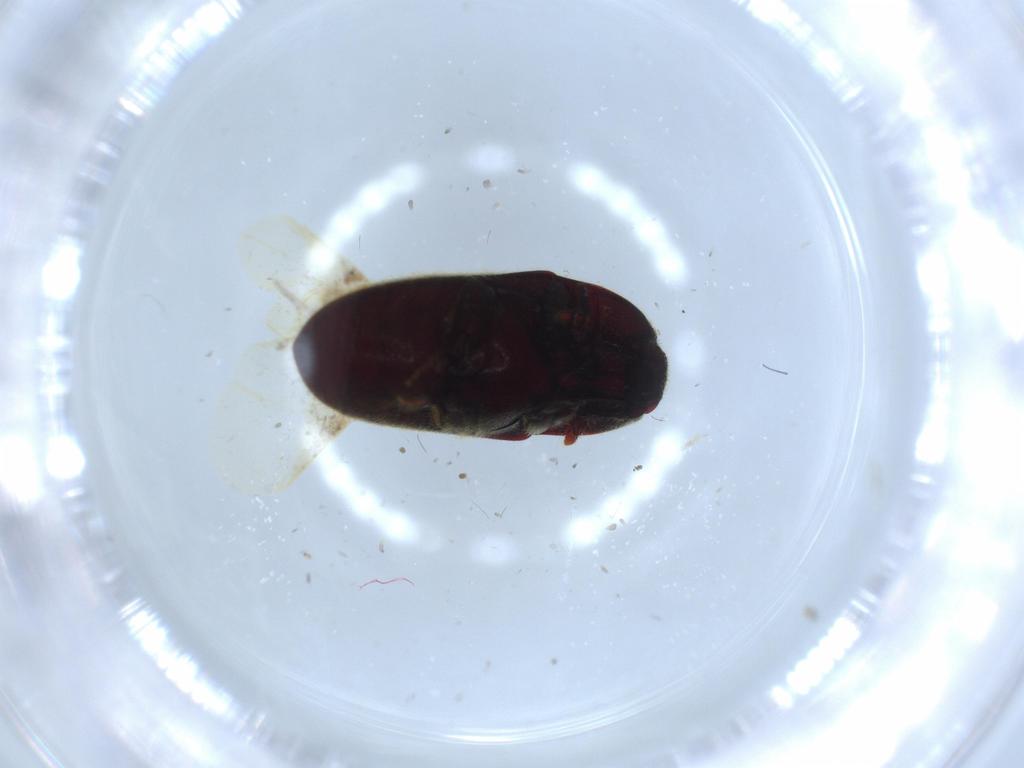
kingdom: Animalia
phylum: Arthropoda
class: Insecta
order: Coleoptera
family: Throscidae
